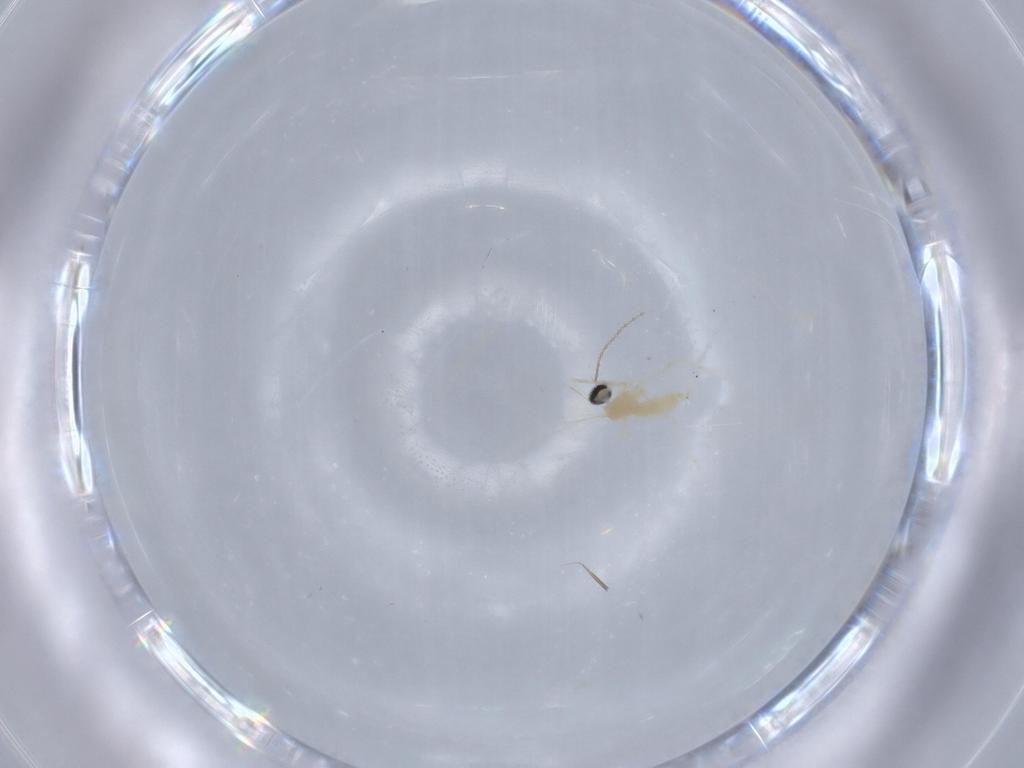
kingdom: Animalia
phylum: Arthropoda
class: Insecta
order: Diptera
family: Cecidomyiidae
